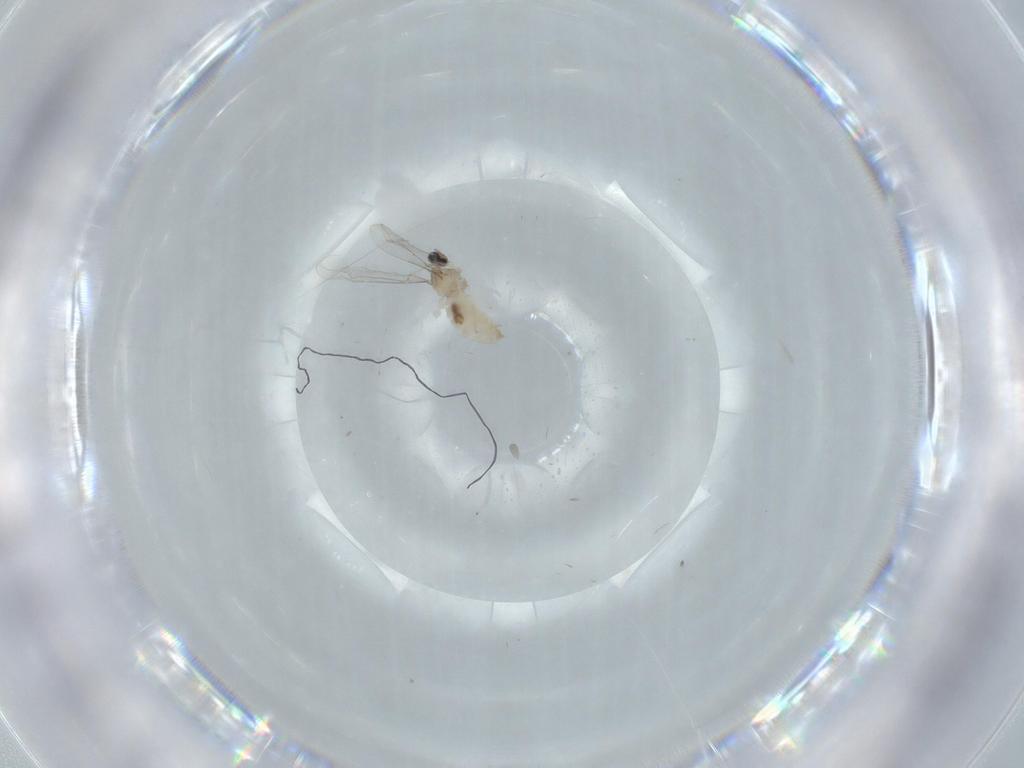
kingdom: Animalia
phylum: Arthropoda
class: Insecta
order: Diptera
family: Cecidomyiidae
